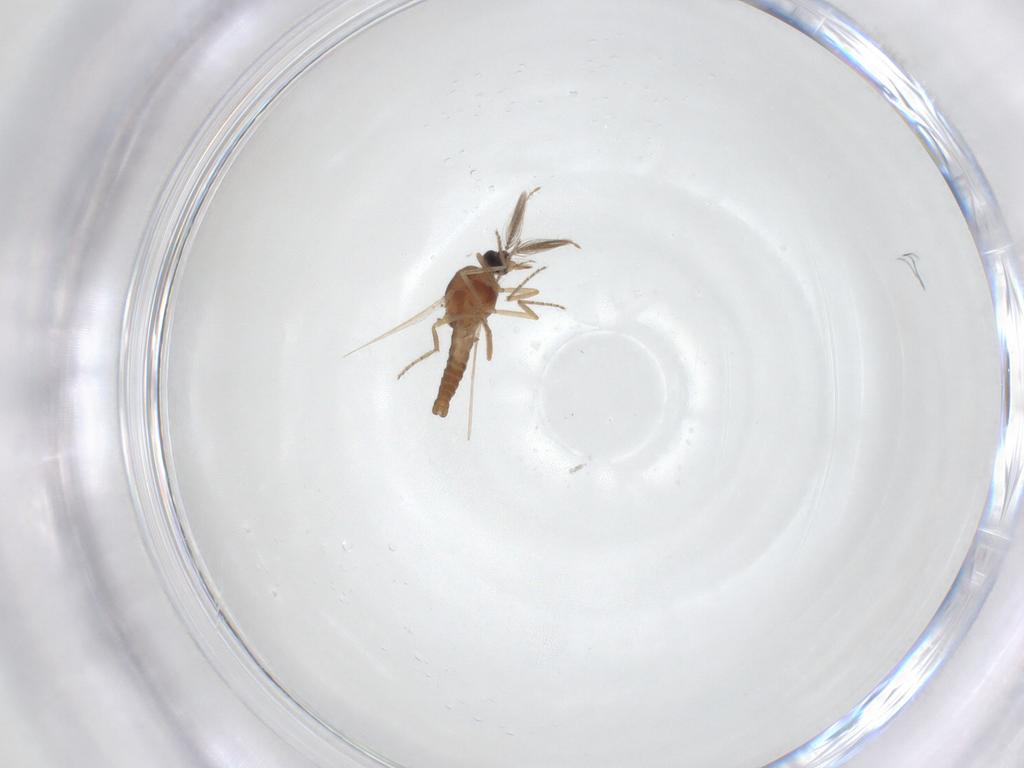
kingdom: Animalia
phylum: Arthropoda
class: Insecta
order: Diptera
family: Ceratopogonidae
